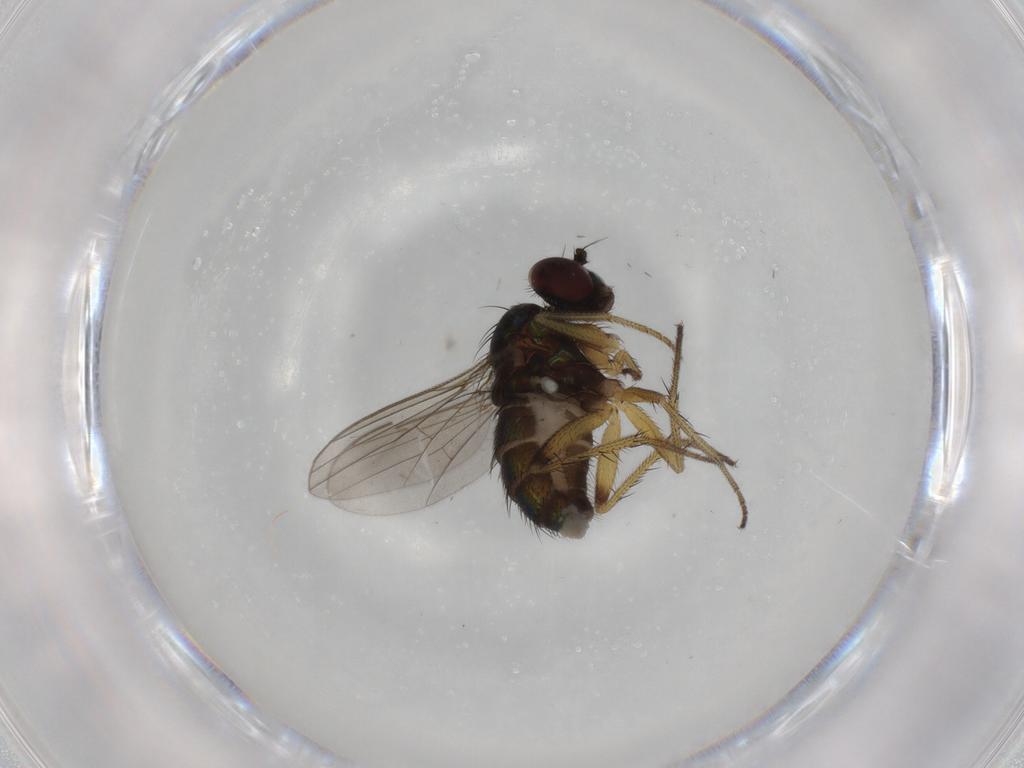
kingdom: Animalia
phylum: Arthropoda
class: Insecta
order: Diptera
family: Dolichopodidae
